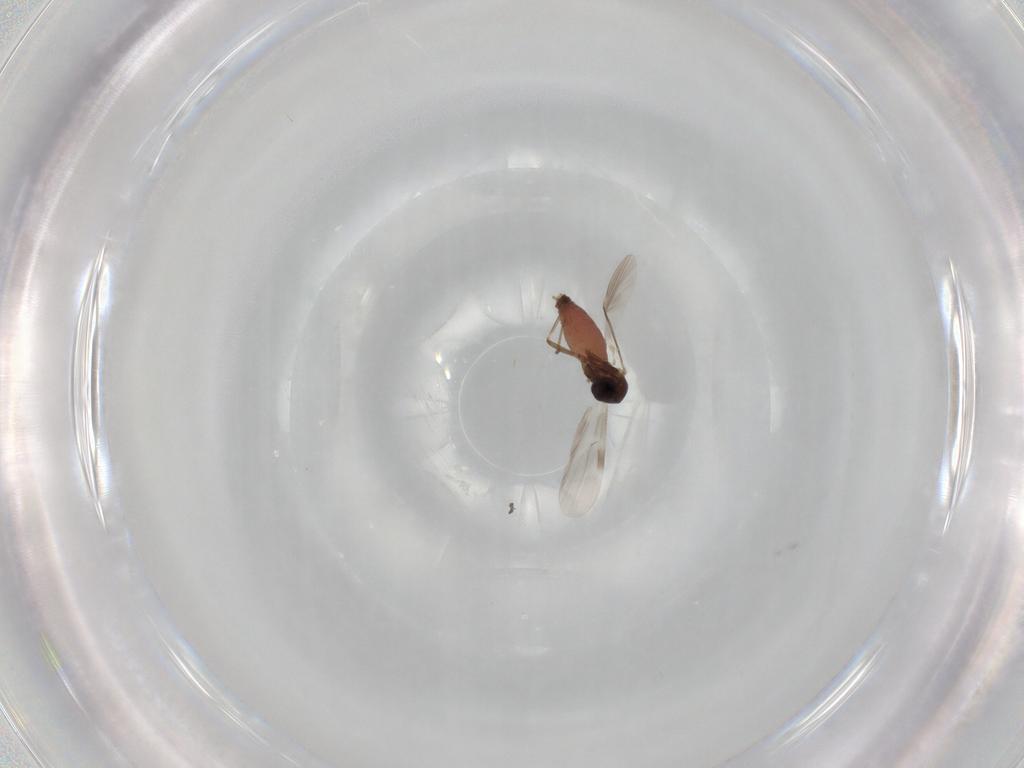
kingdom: Animalia
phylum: Arthropoda
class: Insecta
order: Diptera
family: Ceratopogonidae
